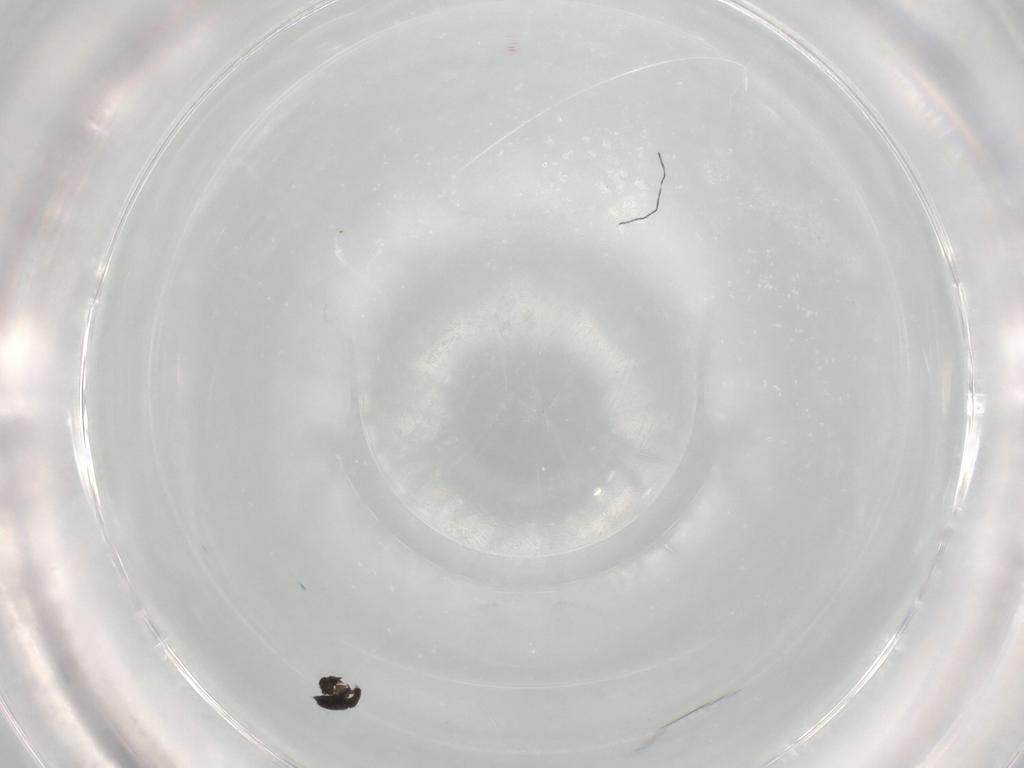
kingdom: Animalia
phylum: Arthropoda
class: Insecta
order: Hymenoptera
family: Scelionidae
